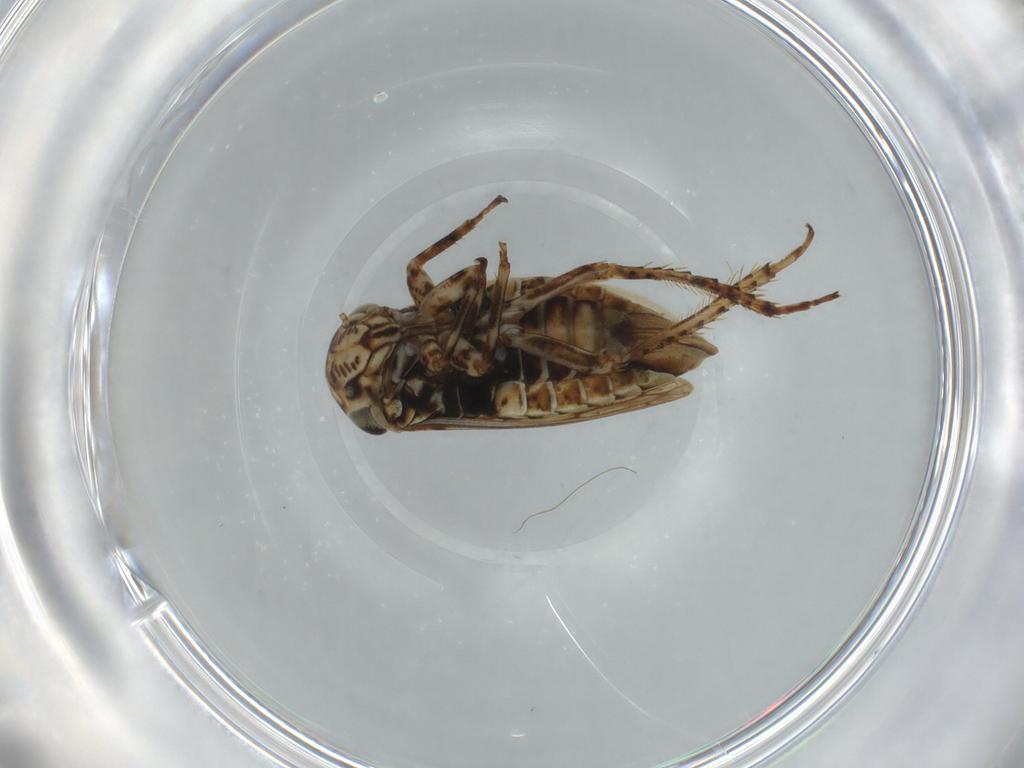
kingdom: Animalia
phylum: Arthropoda
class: Insecta
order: Hemiptera
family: Cicadellidae
